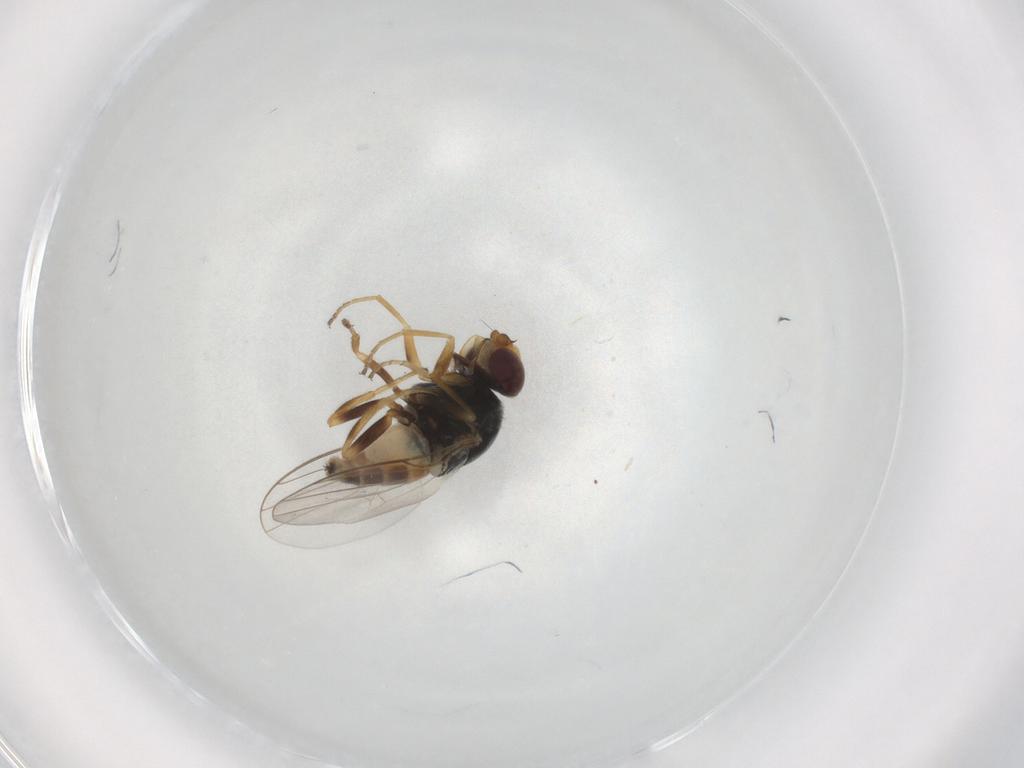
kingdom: Animalia
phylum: Arthropoda
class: Insecta
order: Diptera
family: Chloropidae
